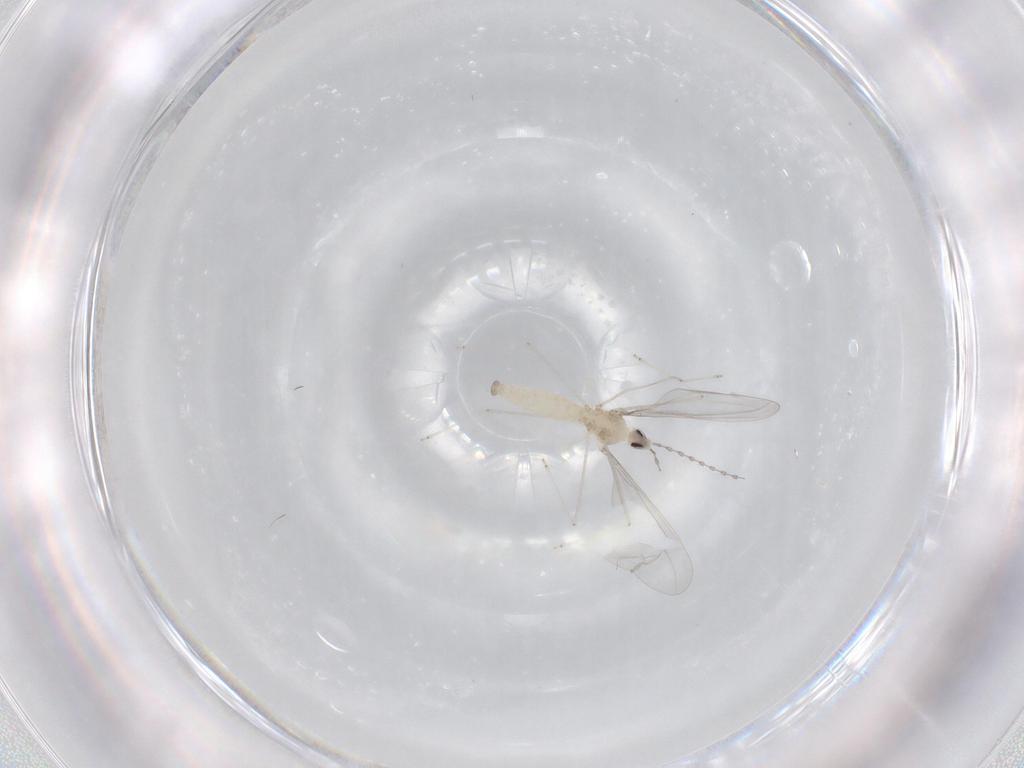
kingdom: Animalia
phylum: Arthropoda
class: Insecta
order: Diptera
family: Cecidomyiidae
